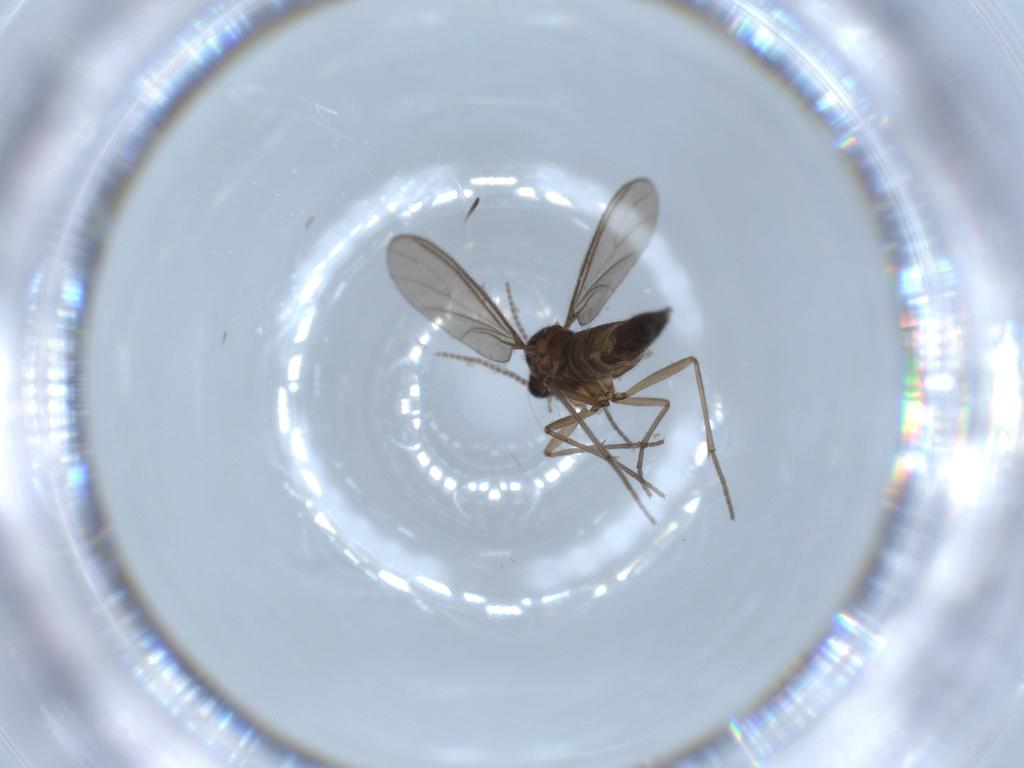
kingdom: Animalia
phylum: Arthropoda
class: Insecta
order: Diptera
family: Sciaridae
